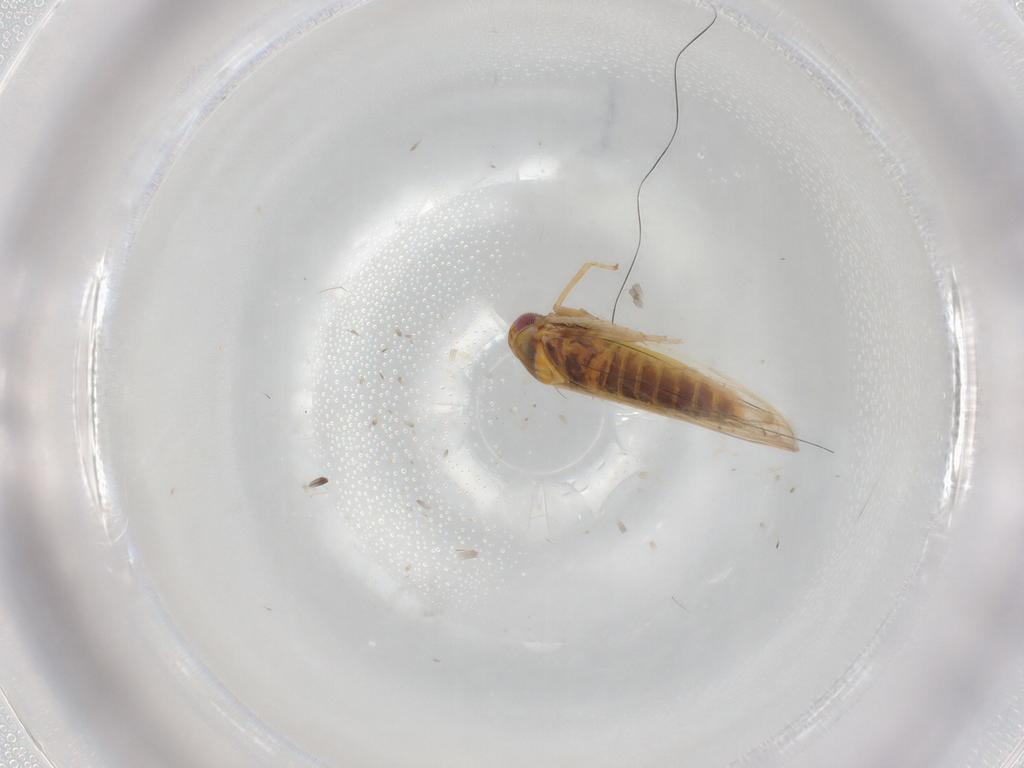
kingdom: Animalia
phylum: Arthropoda
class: Insecta
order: Hemiptera
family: Cicadellidae
